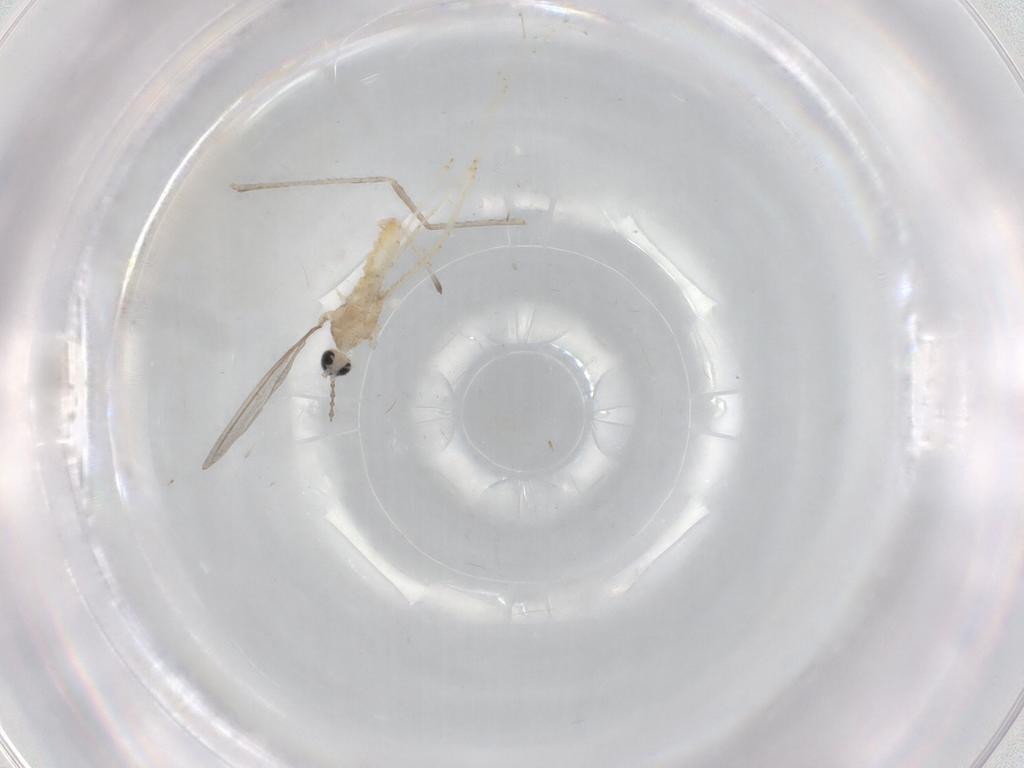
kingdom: Animalia
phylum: Arthropoda
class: Insecta
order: Diptera
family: Cecidomyiidae
